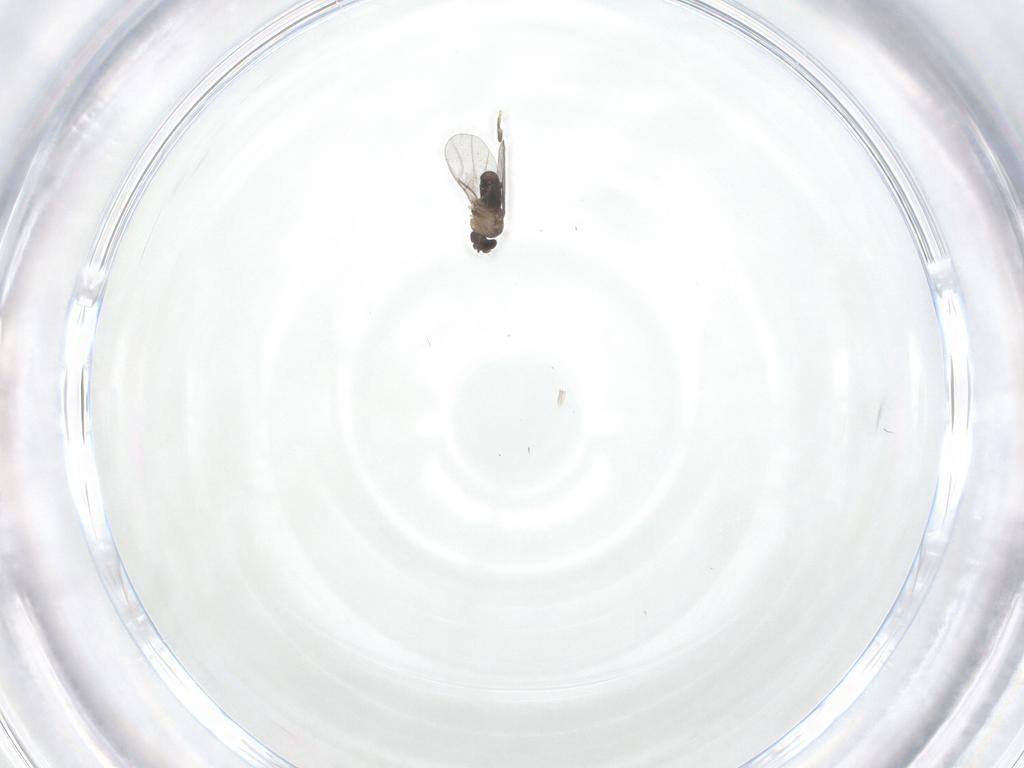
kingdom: Animalia
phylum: Arthropoda
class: Insecta
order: Diptera
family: Phoridae
